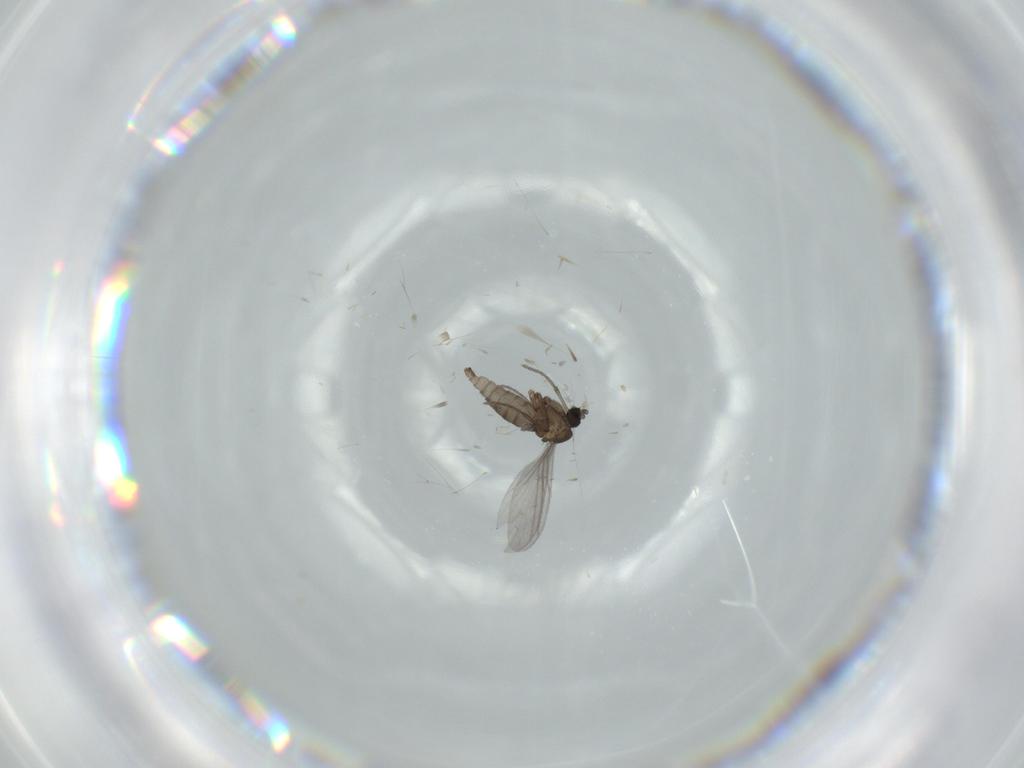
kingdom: Animalia
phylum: Arthropoda
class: Insecta
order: Diptera
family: Sciaridae
